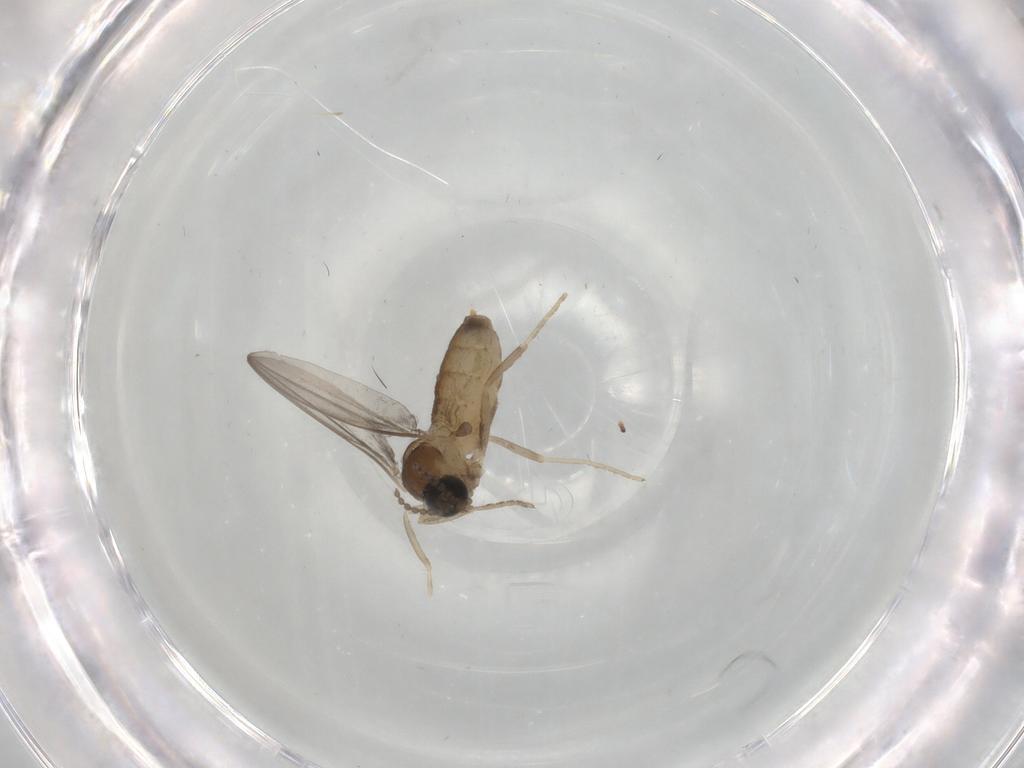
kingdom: Animalia
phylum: Arthropoda
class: Insecta
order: Diptera
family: Cecidomyiidae
